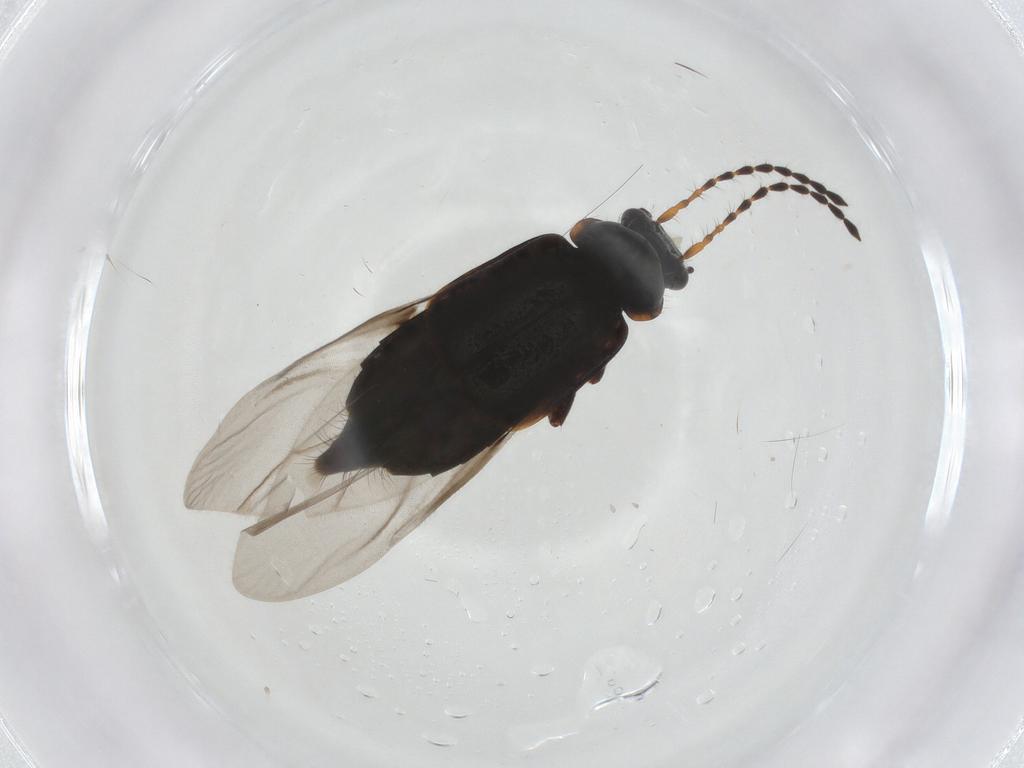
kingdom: Animalia
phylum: Arthropoda
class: Insecta
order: Coleoptera
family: Staphylinidae
